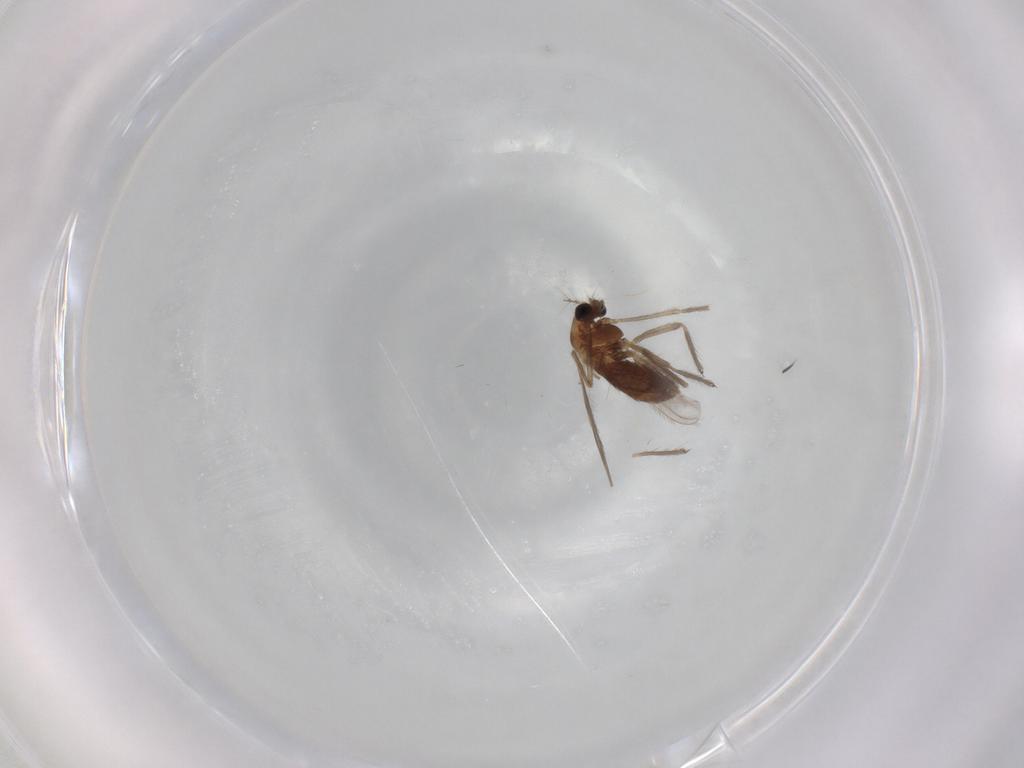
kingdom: Animalia
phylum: Arthropoda
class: Insecta
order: Diptera
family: Chironomidae
